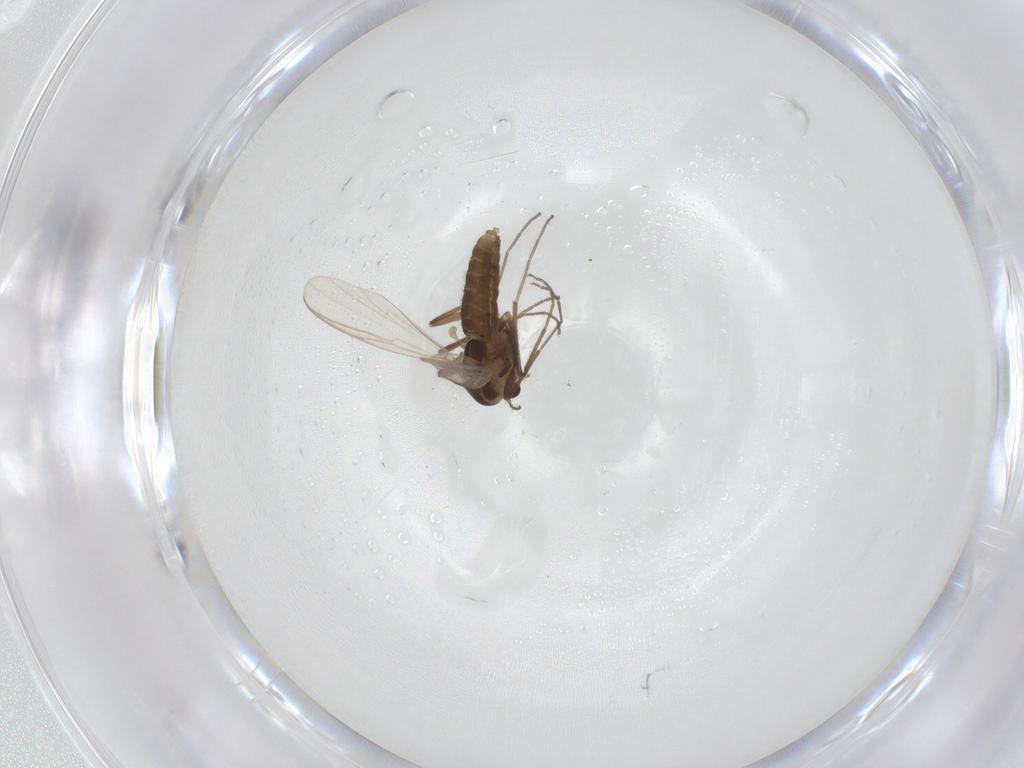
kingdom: Animalia
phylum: Arthropoda
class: Insecta
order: Diptera
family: Chironomidae
